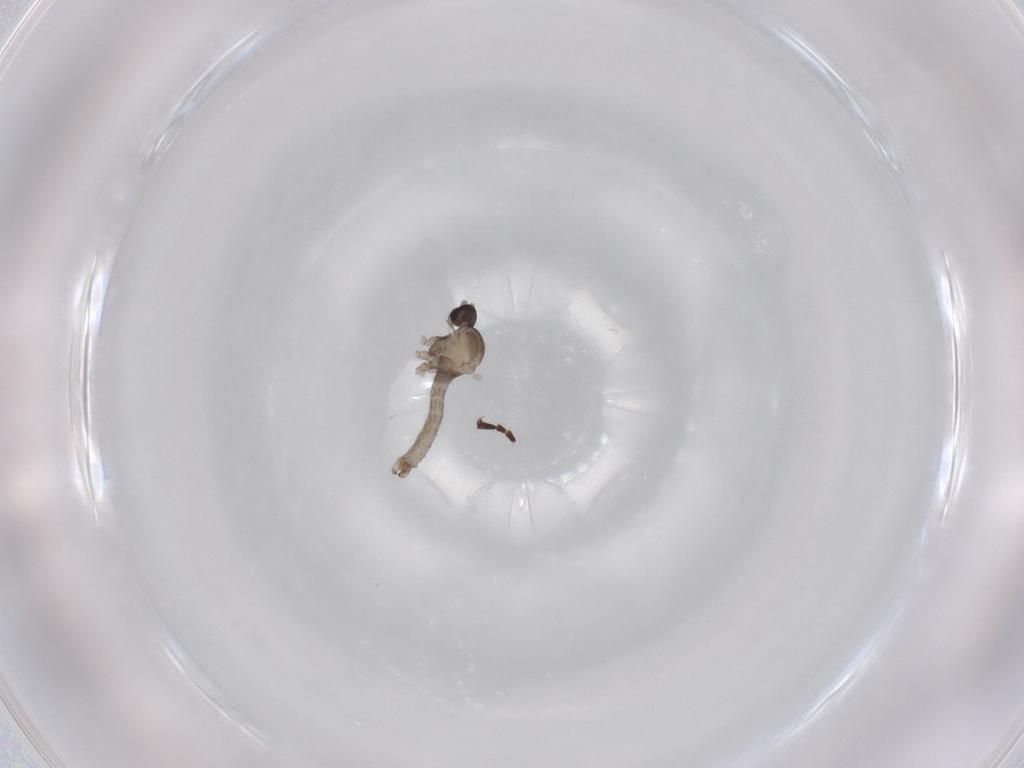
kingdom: Animalia
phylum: Arthropoda
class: Insecta
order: Diptera
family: Cecidomyiidae
